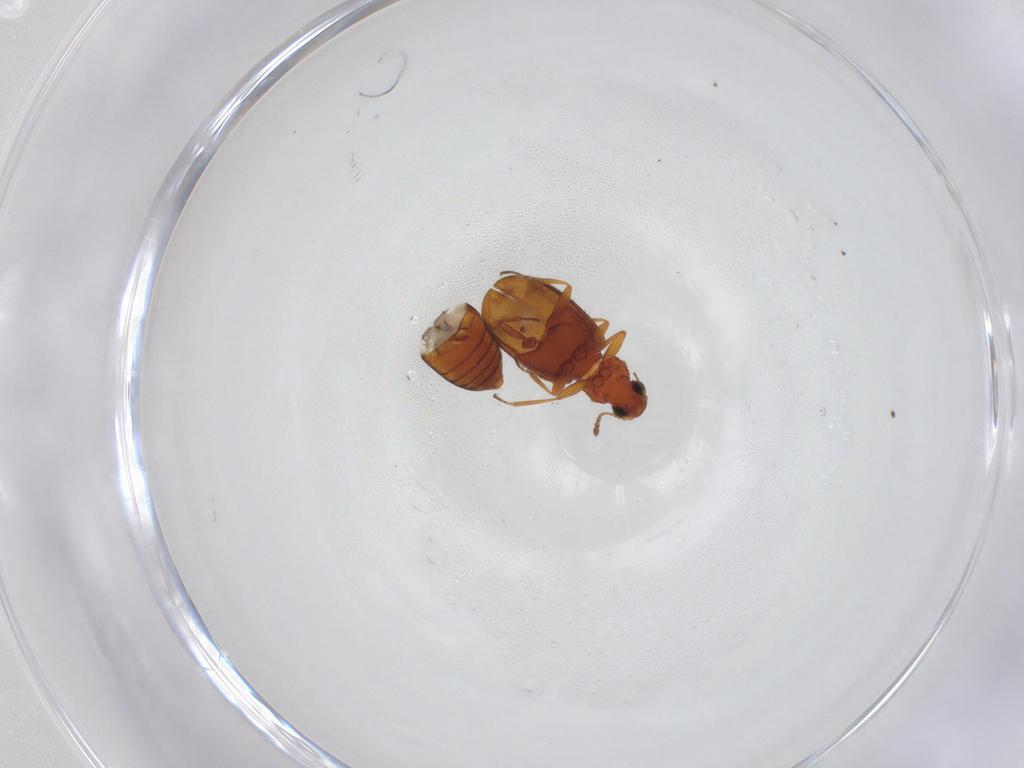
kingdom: Animalia
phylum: Arthropoda
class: Insecta
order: Coleoptera
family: Latridiidae
